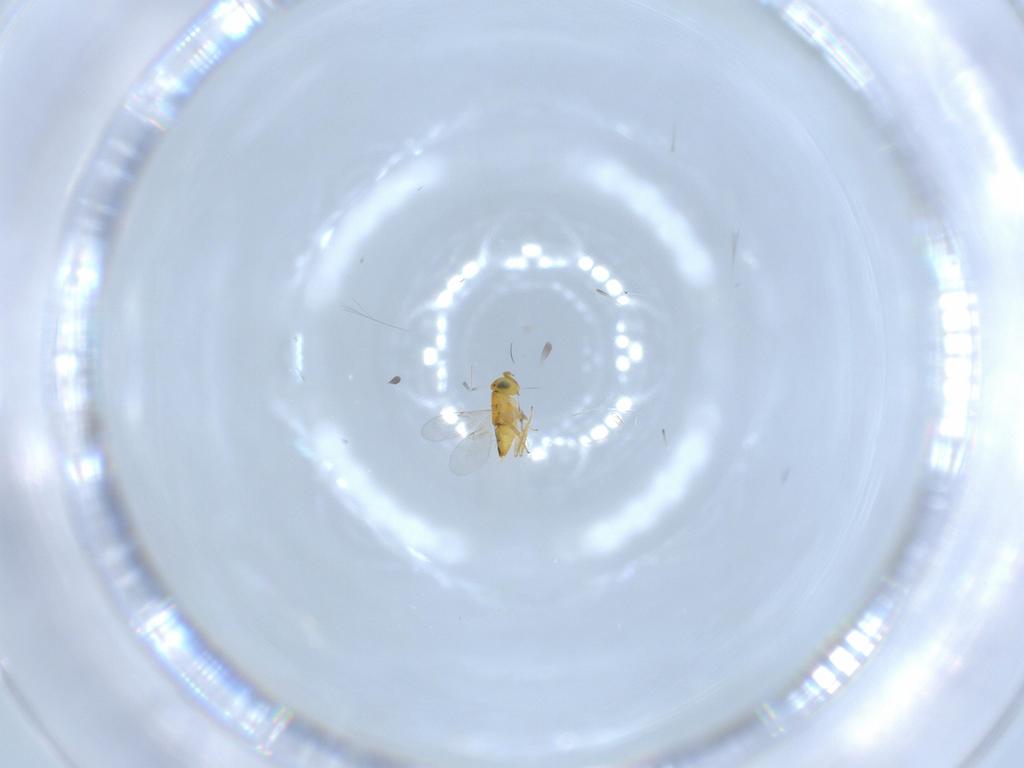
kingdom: Animalia
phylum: Arthropoda
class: Insecta
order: Hymenoptera
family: Encyrtidae
